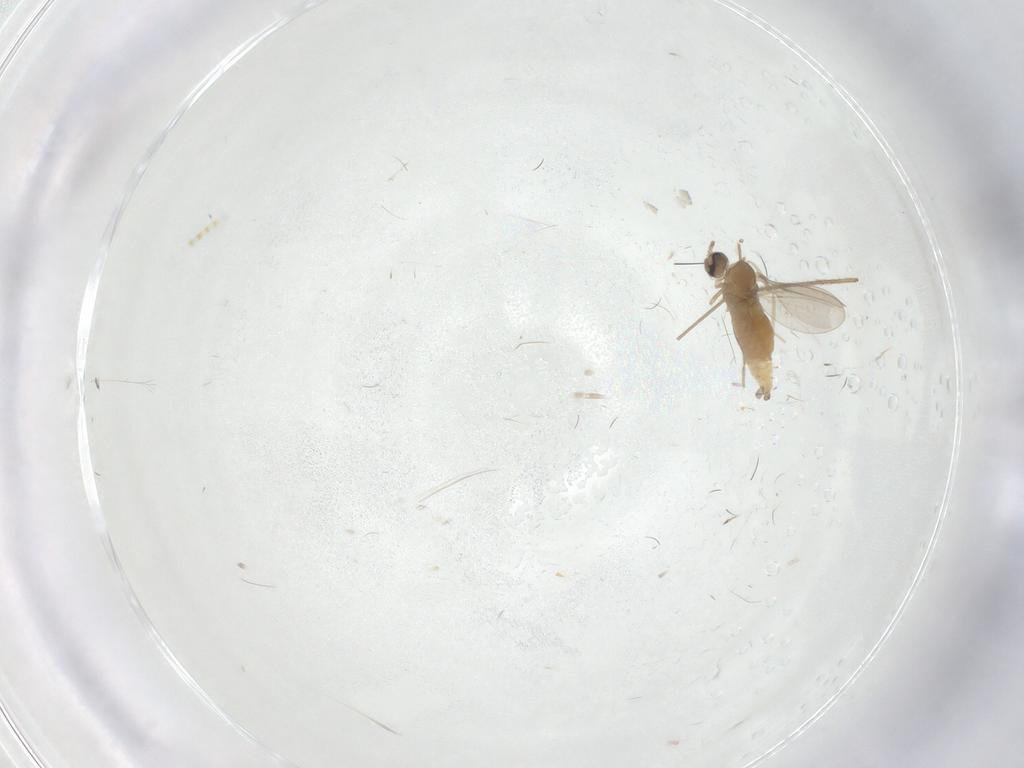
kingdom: Animalia
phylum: Arthropoda
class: Insecta
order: Diptera
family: Cecidomyiidae
